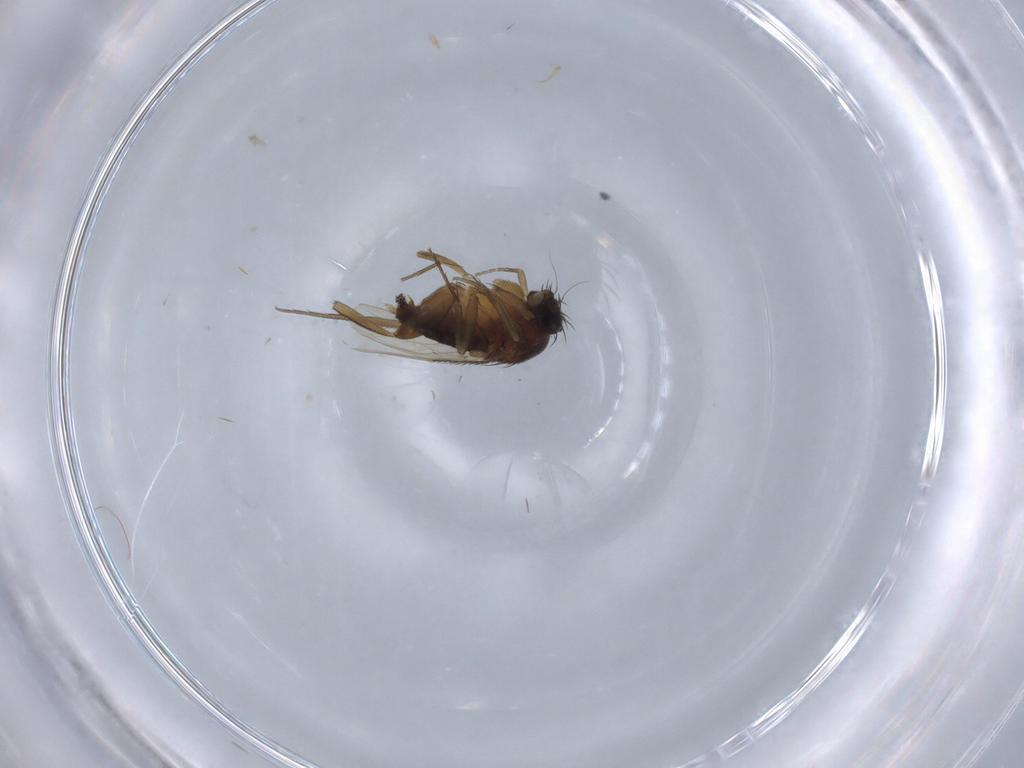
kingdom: Animalia
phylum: Arthropoda
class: Insecta
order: Diptera
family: Phoridae
